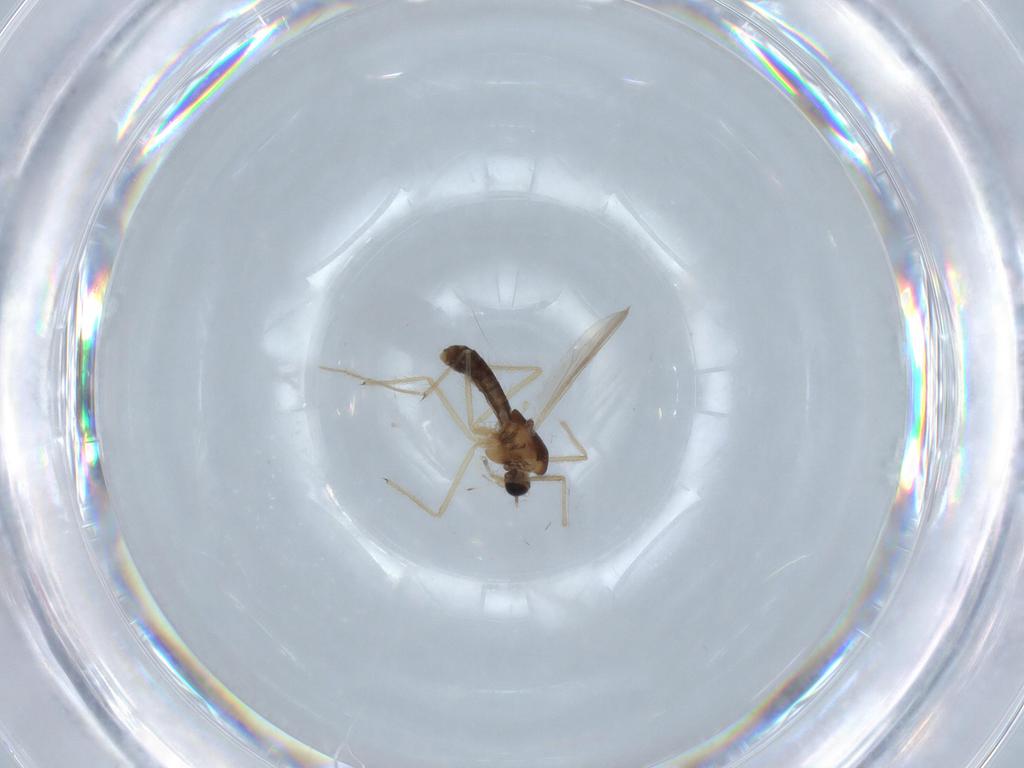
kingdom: Animalia
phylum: Arthropoda
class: Insecta
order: Diptera
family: Chironomidae
